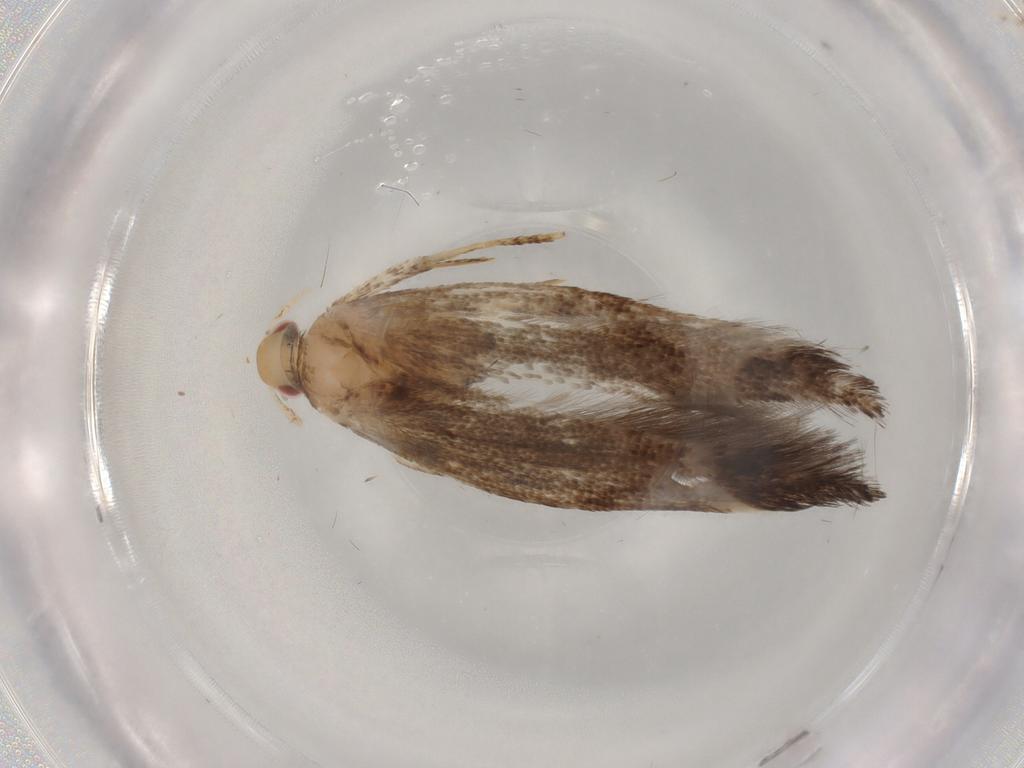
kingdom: Animalia
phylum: Arthropoda
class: Insecta
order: Lepidoptera
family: Cosmopterigidae
